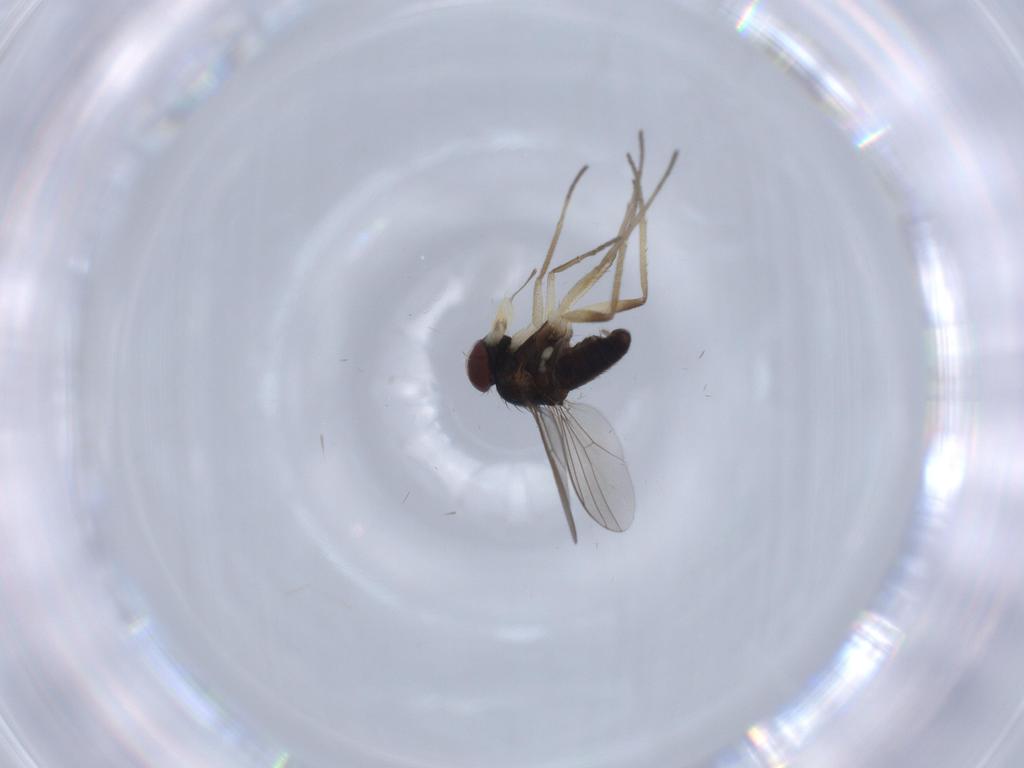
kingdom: Animalia
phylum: Arthropoda
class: Insecta
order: Diptera
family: Dolichopodidae
